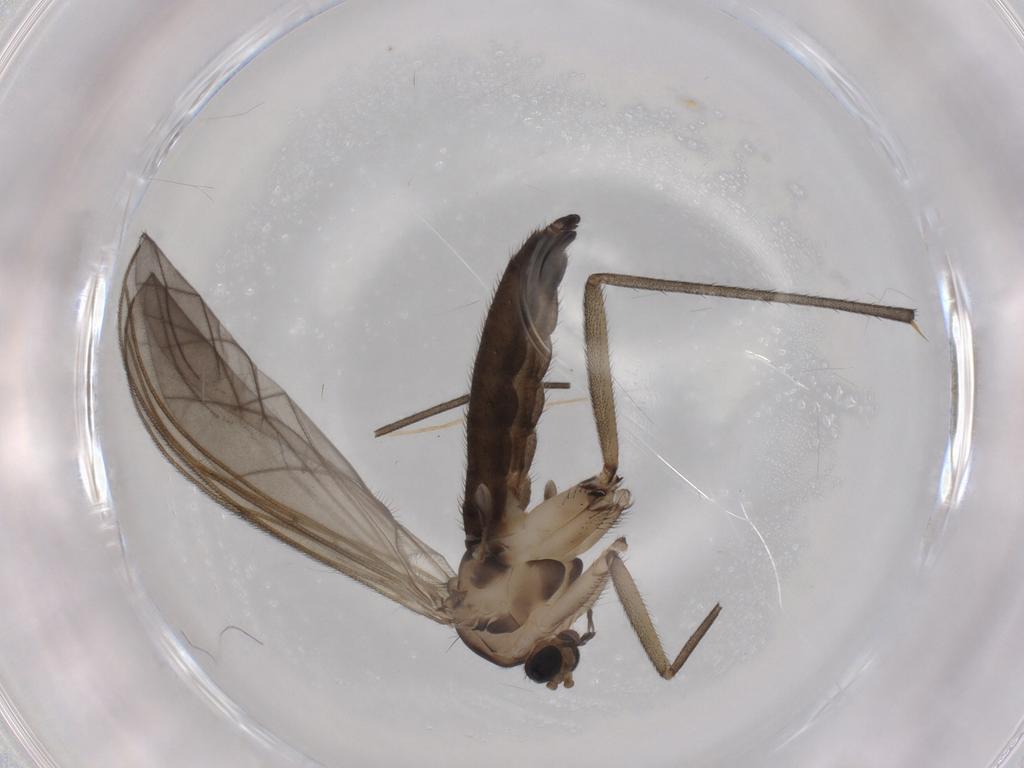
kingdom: Animalia
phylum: Arthropoda
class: Insecta
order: Diptera
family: Sciaridae
